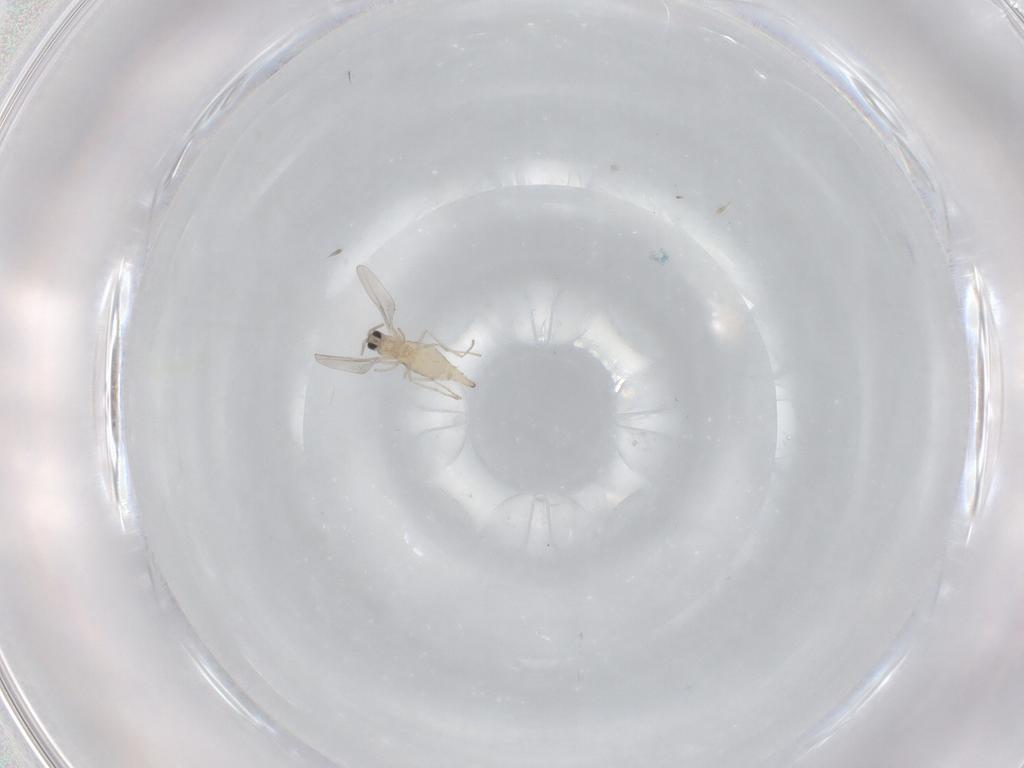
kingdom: Animalia
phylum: Arthropoda
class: Insecta
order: Diptera
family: Cecidomyiidae
